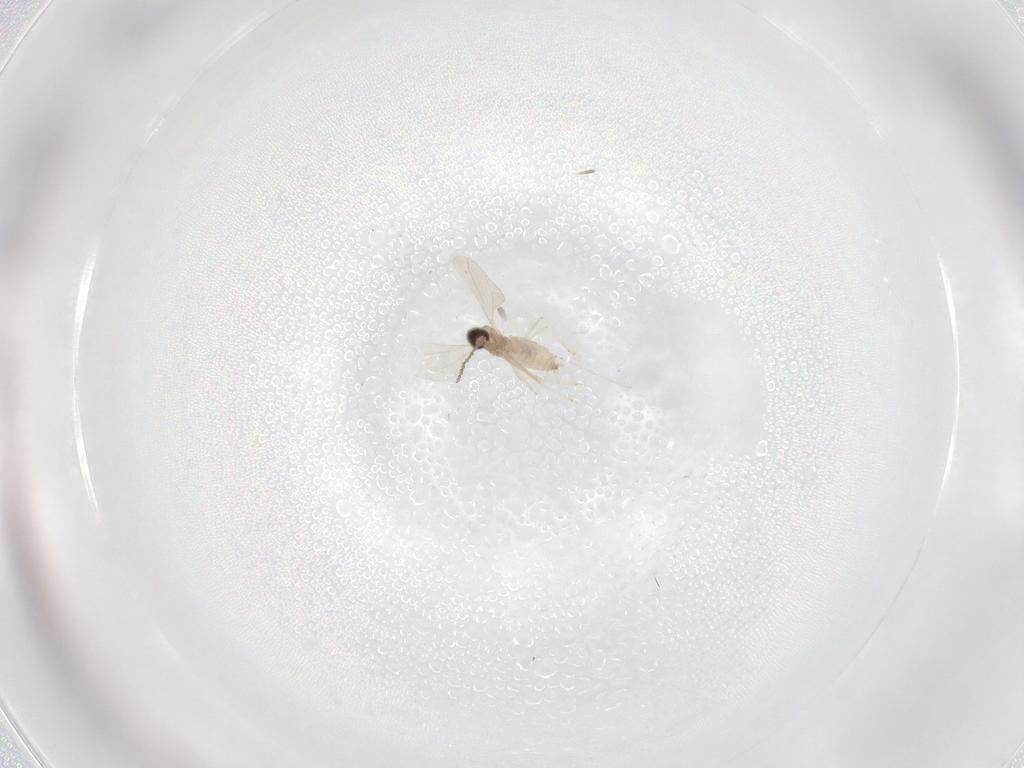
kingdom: Animalia
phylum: Arthropoda
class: Insecta
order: Diptera
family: Cecidomyiidae
